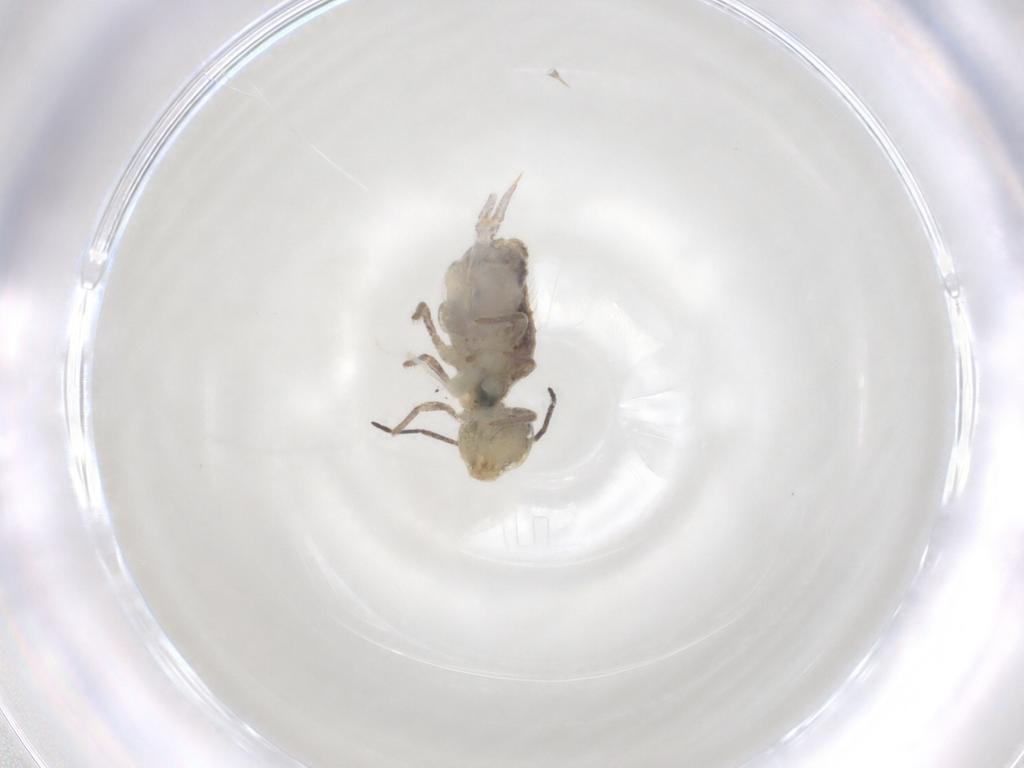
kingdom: Animalia
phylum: Arthropoda
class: Collembola
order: Symphypleona
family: Sminthuridae
